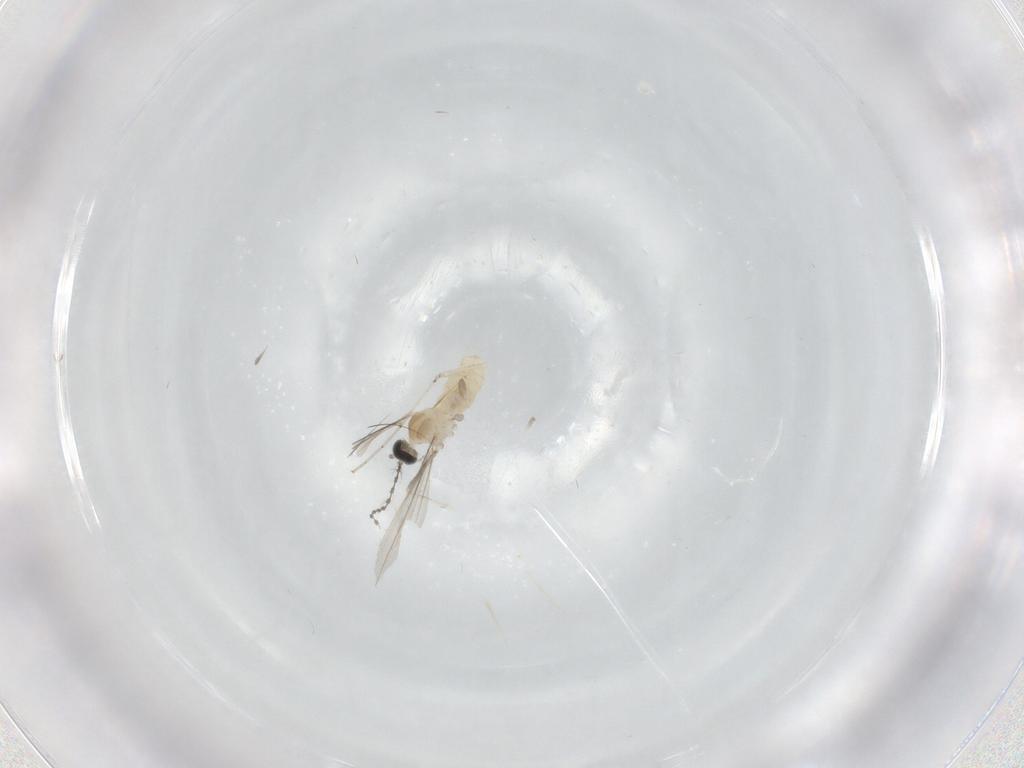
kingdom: Animalia
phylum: Arthropoda
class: Insecta
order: Diptera
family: Cecidomyiidae
